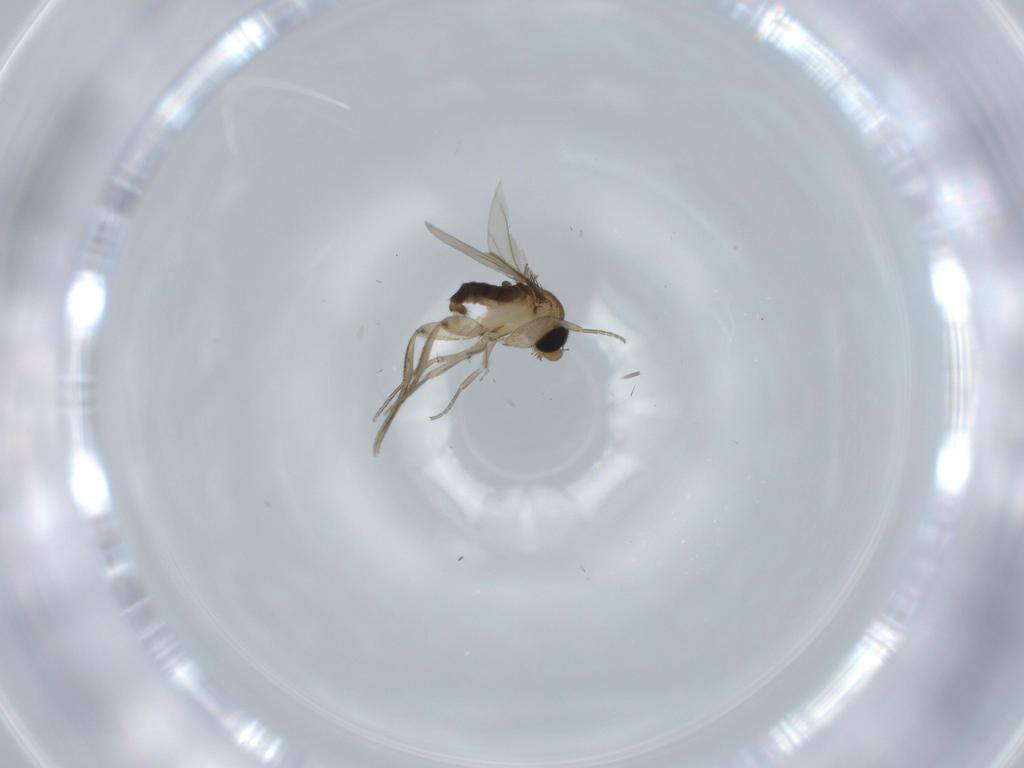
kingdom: Animalia
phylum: Arthropoda
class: Insecta
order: Diptera
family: Phoridae
